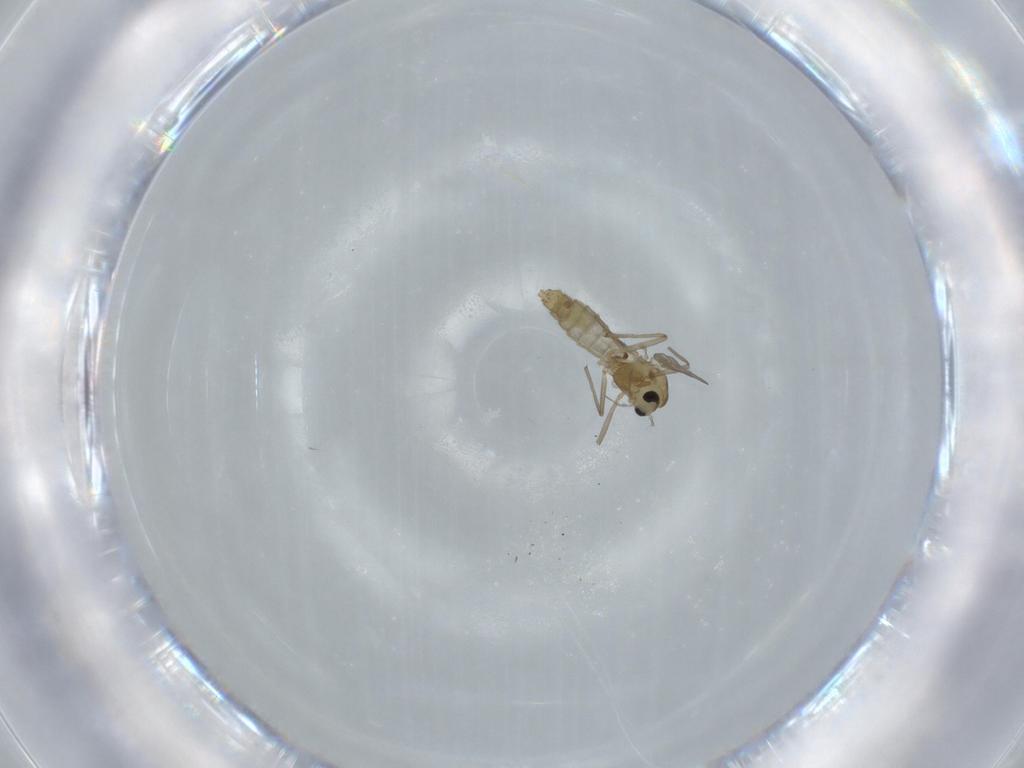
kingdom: Animalia
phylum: Arthropoda
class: Insecta
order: Diptera
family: Chironomidae
